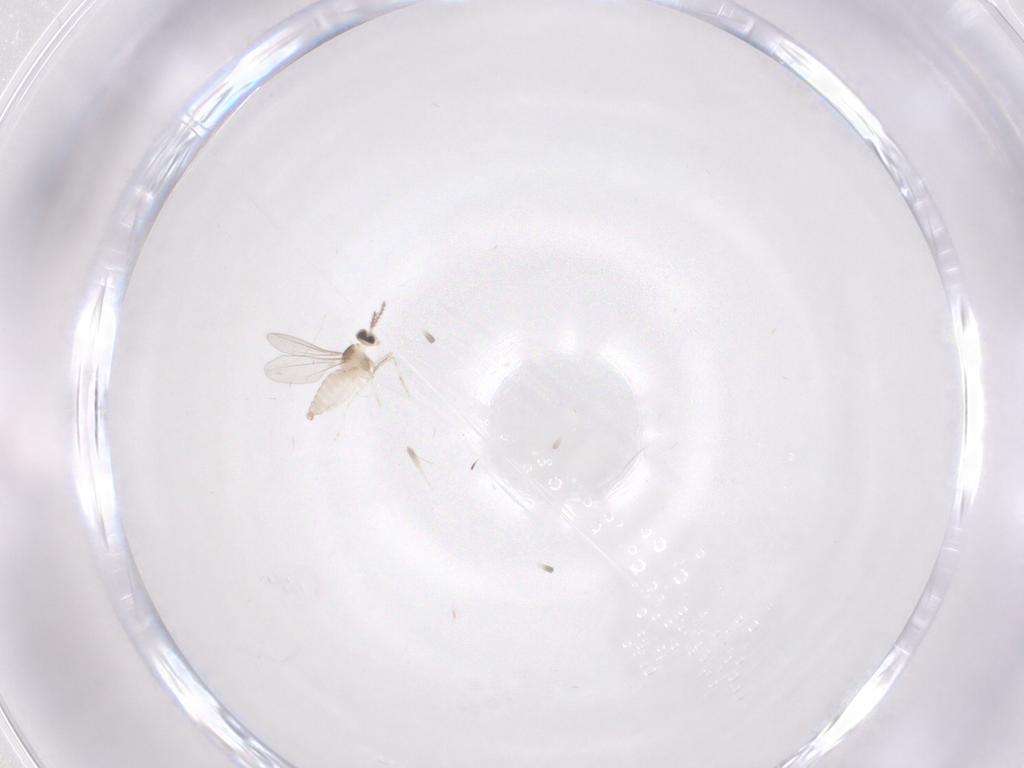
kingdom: Animalia
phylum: Arthropoda
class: Insecta
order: Diptera
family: Cecidomyiidae
